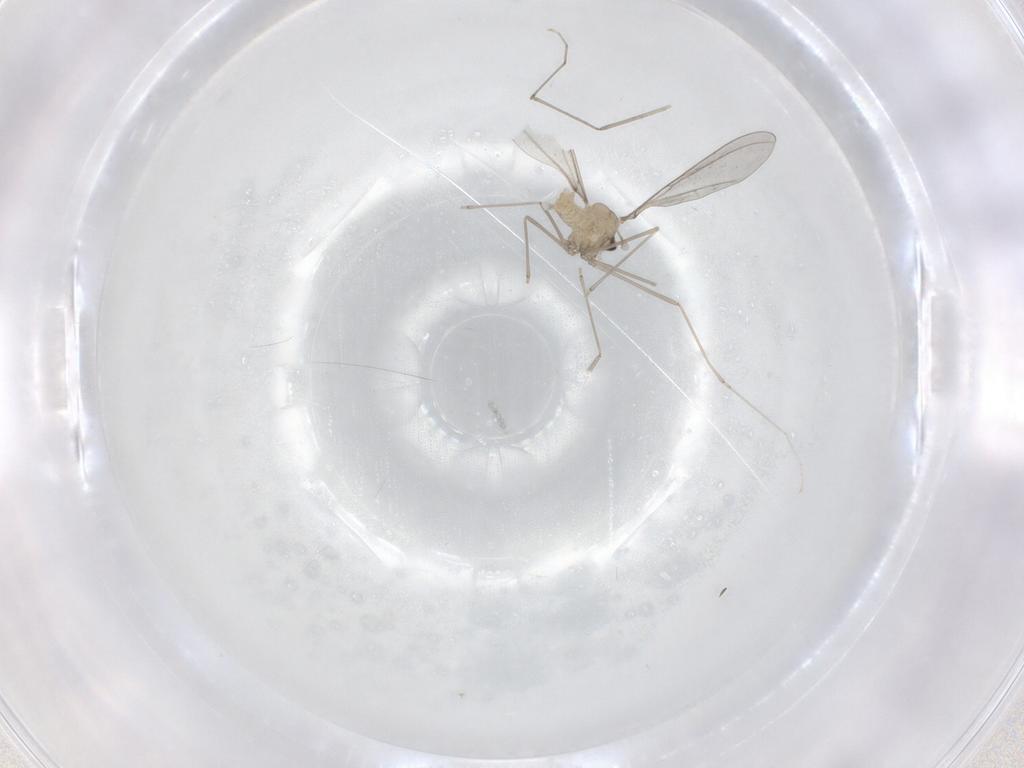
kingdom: Animalia
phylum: Arthropoda
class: Insecta
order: Diptera
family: Cecidomyiidae
